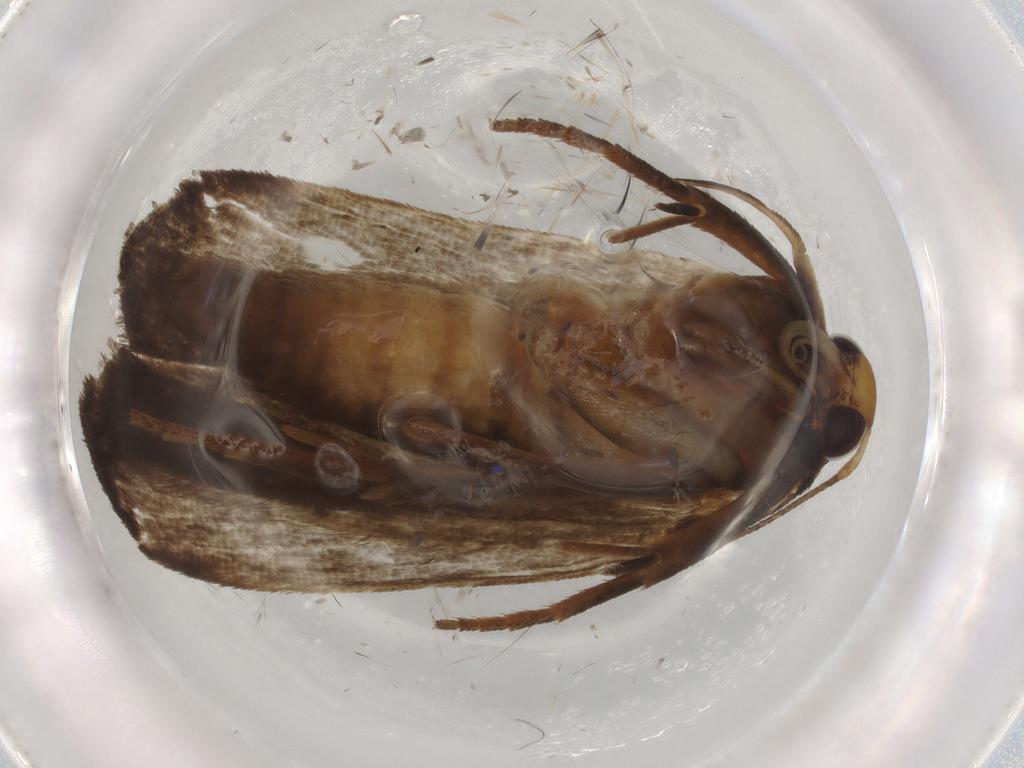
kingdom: Animalia
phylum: Arthropoda
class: Insecta
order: Lepidoptera
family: Gelechiidae
